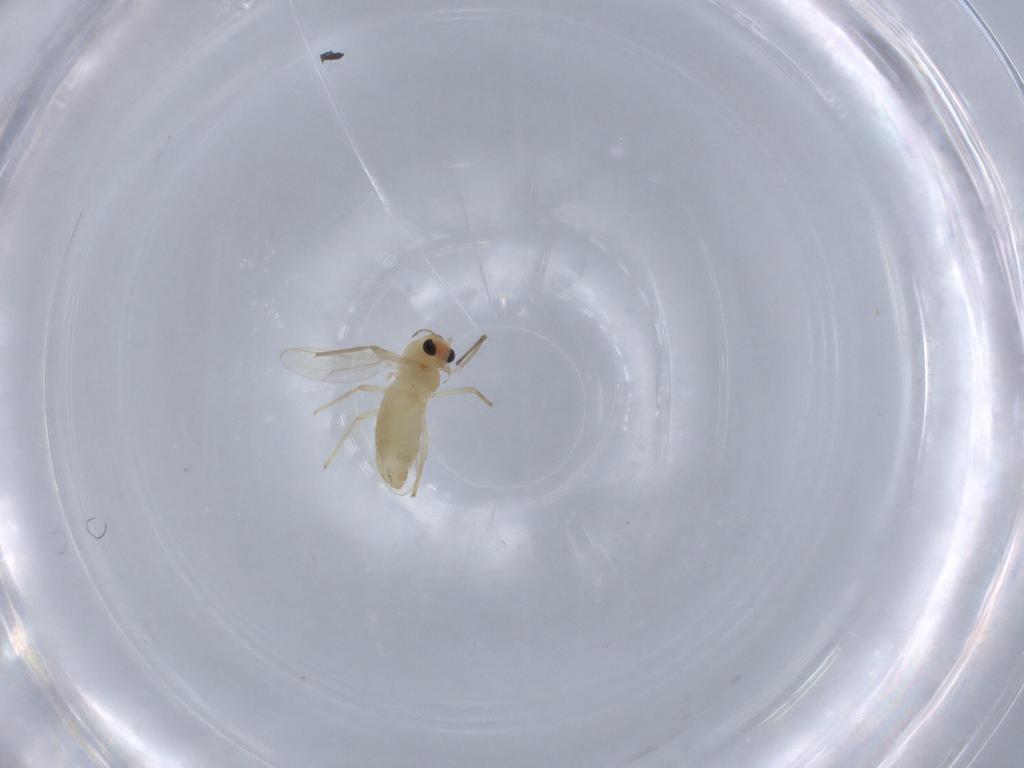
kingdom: Animalia
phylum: Arthropoda
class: Insecta
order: Diptera
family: Chironomidae
